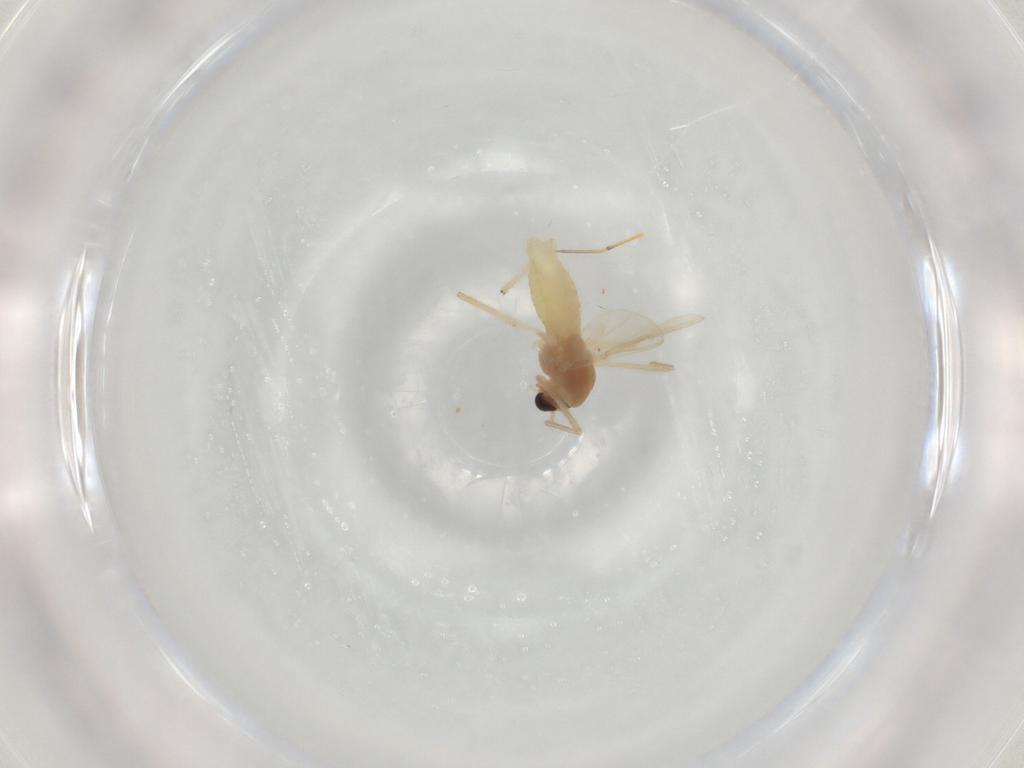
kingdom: Animalia
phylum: Arthropoda
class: Insecta
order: Diptera
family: Chironomidae
